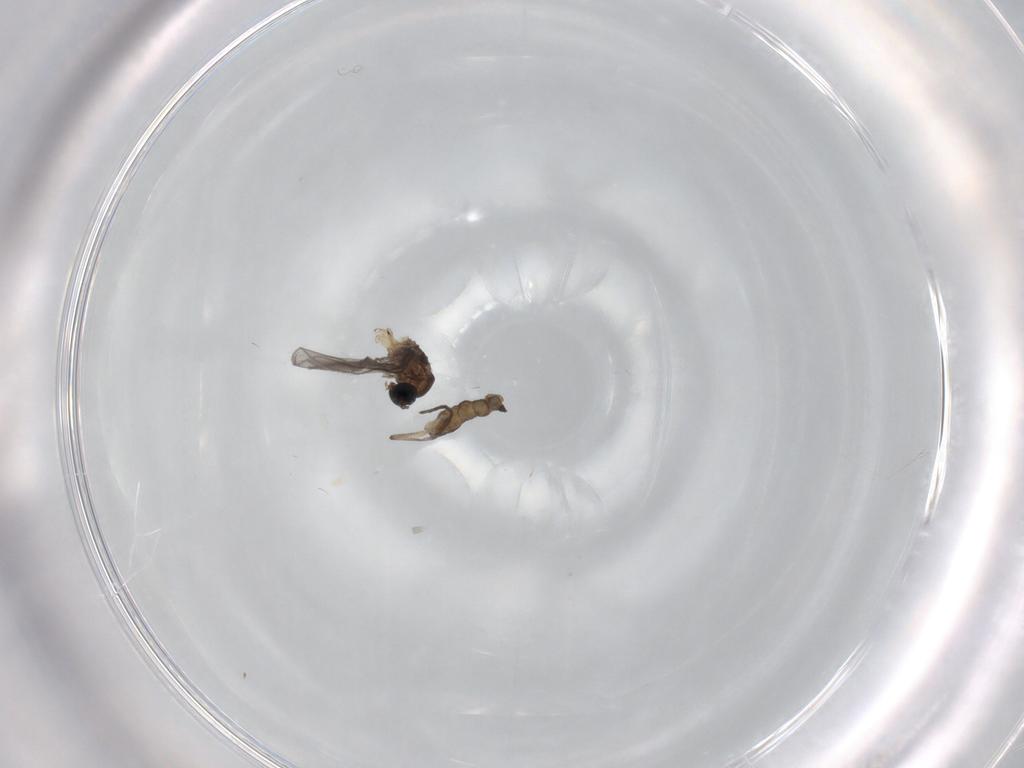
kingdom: Animalia
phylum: Arthropoda
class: Insecta
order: Diptera
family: Sciaridae
